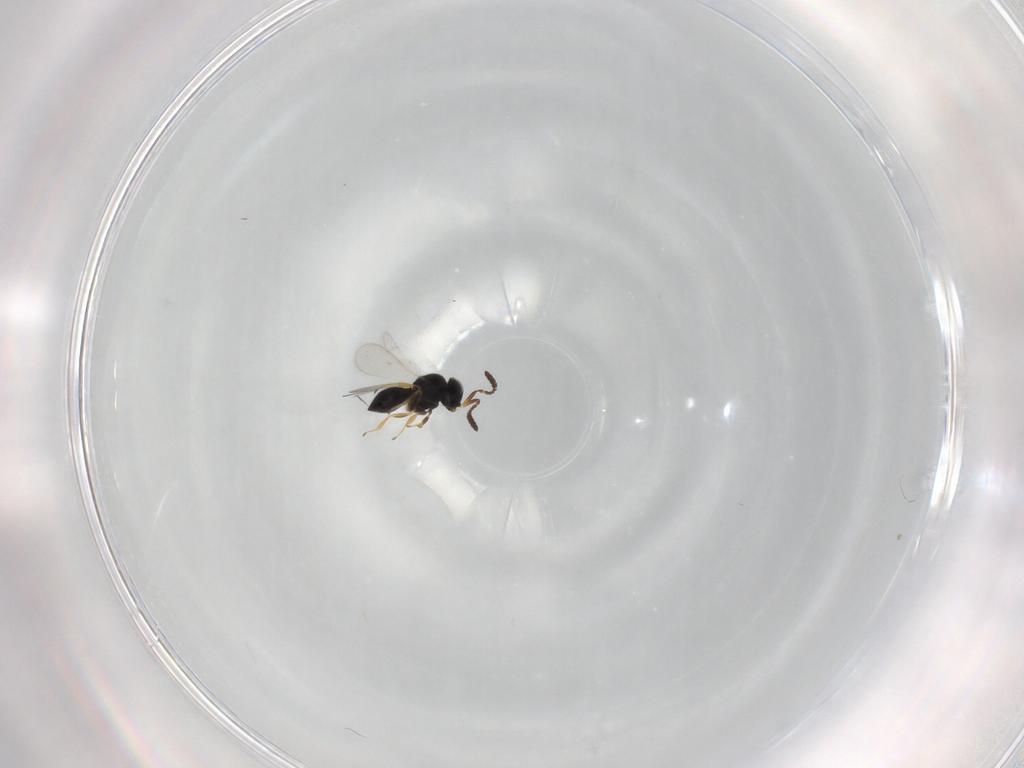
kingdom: Animalia
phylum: Arthropoda
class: Insecta
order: Hymenoptera
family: Scelionidae
